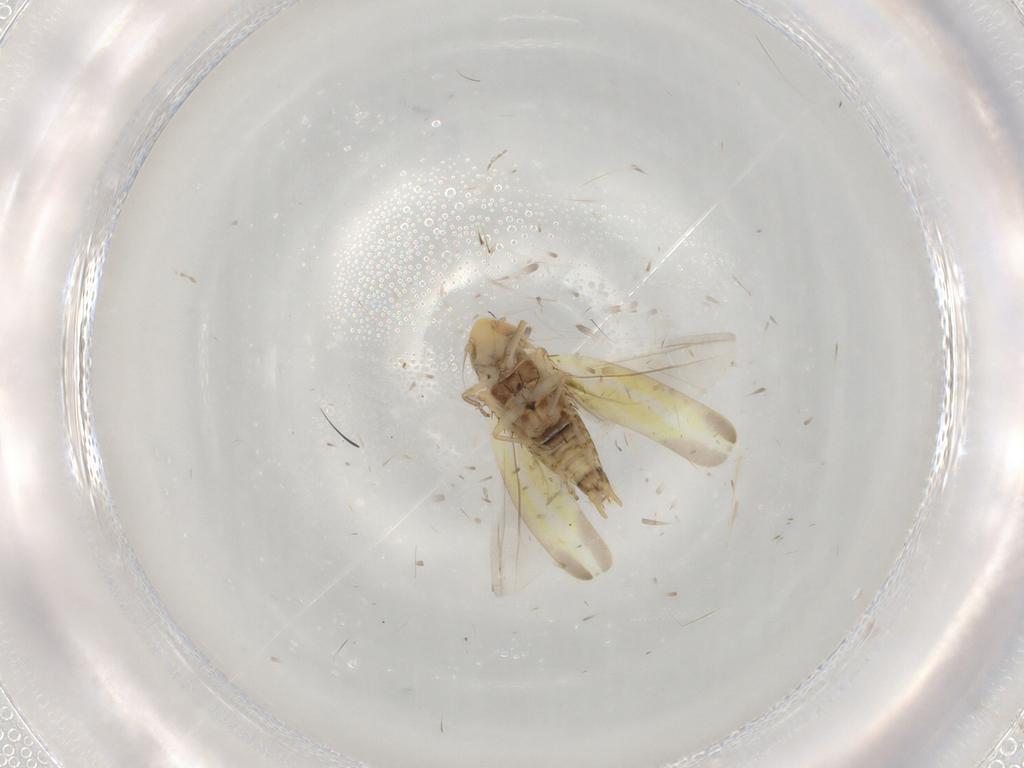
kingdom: Animalia
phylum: Arthropoda
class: Insecta
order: Hemiptera
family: Cicadellidae
